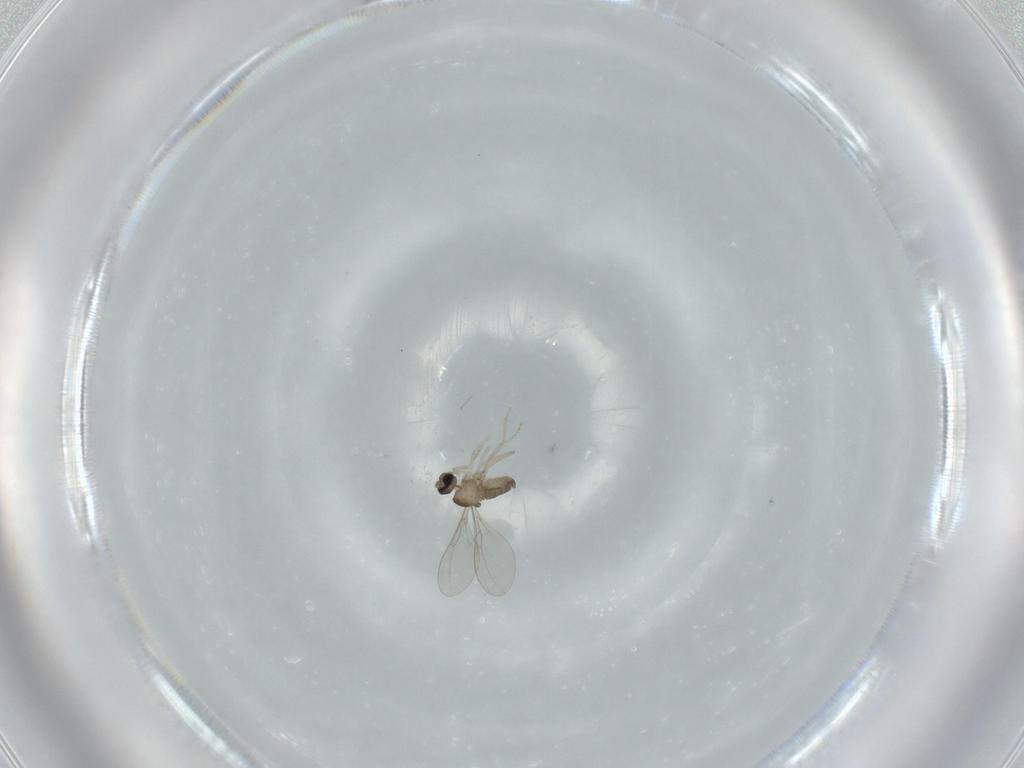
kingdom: Animalia
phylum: Arthropoda
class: Insecta
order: Diptera
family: Cecidomyiidae
